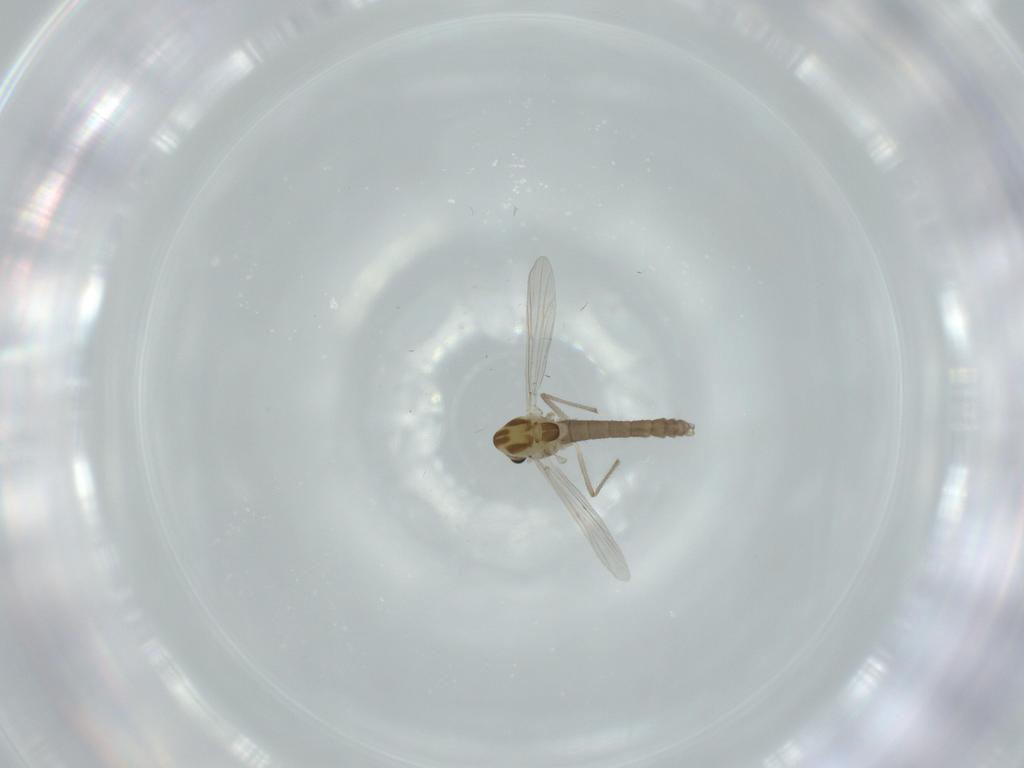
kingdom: Animalia
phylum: Arthropoda
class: Insecta
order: Diptera
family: Chironomidae
